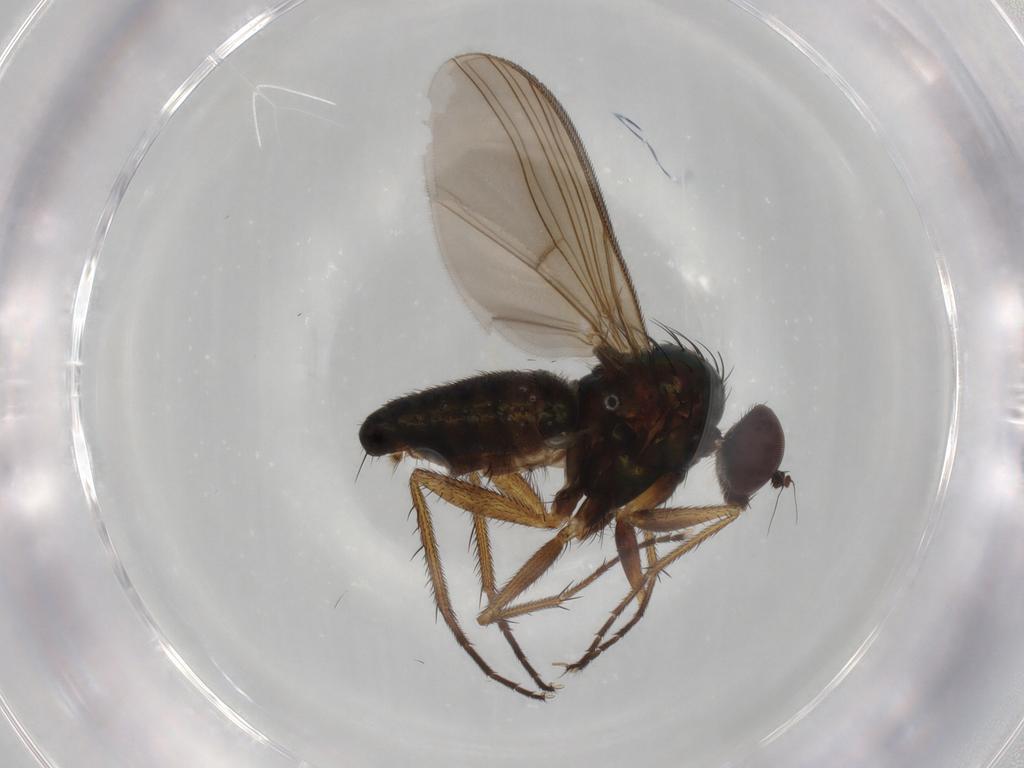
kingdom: Animalia
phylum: Arthropoda
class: Insecta
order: Diptera
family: Dolichopodidae
